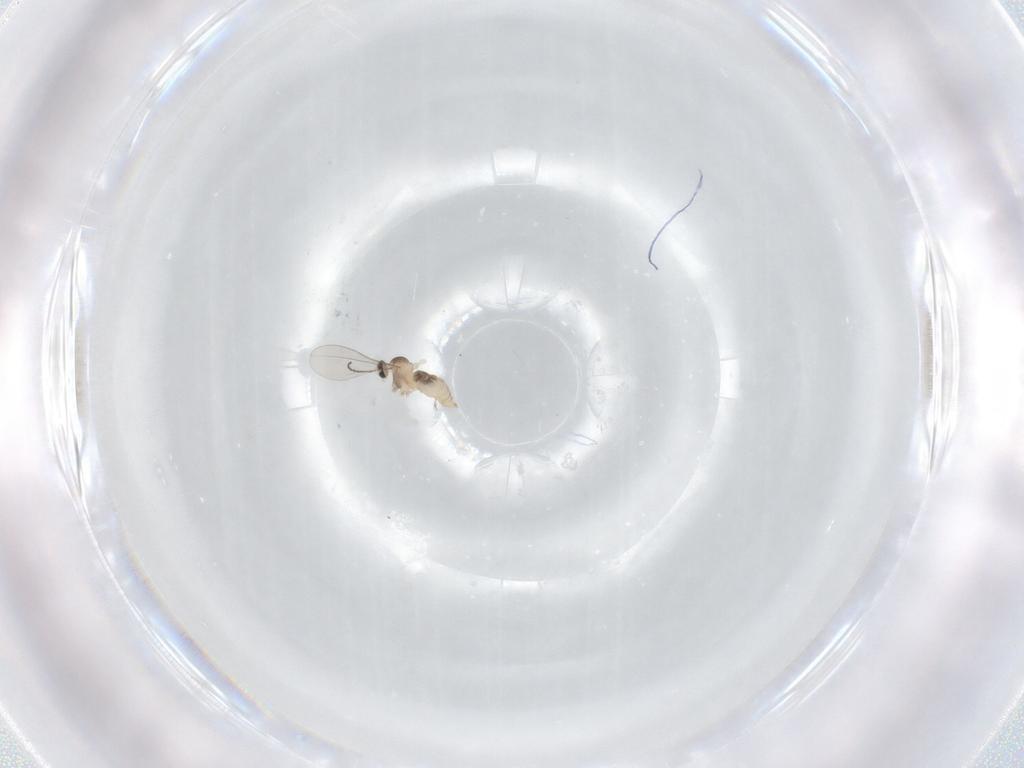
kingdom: Animalia
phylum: Arthropoda
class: Insecta
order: Diptera
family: Cecidomyiidae
